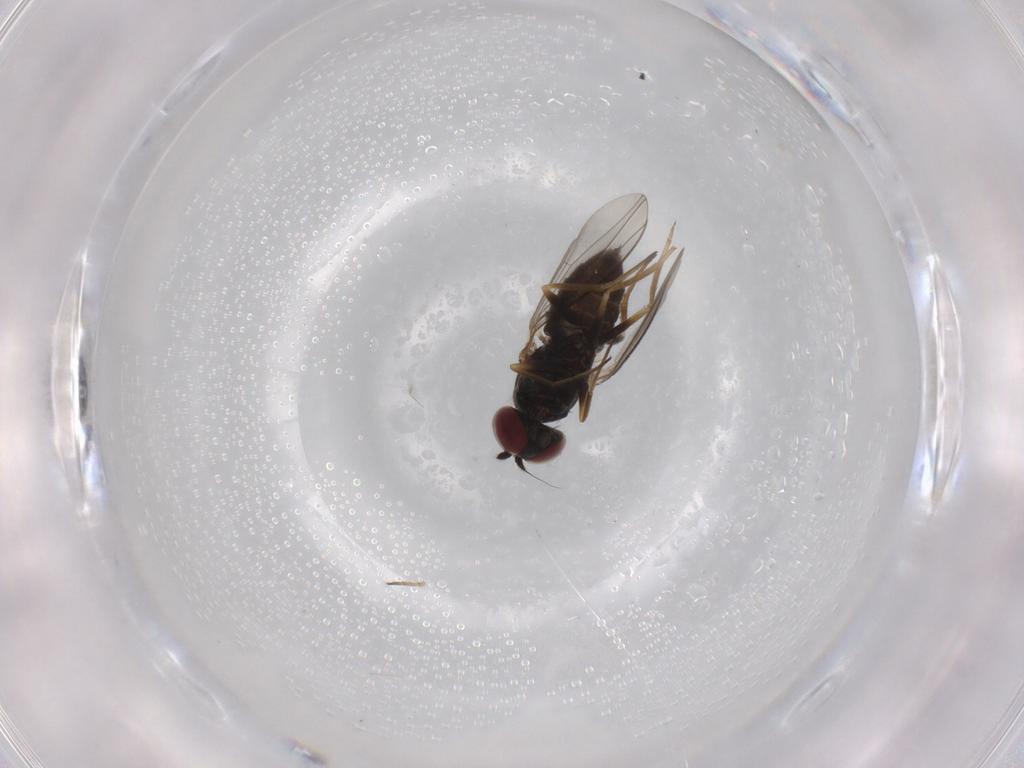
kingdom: Animalia
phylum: Arthropoda
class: Insecta
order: Diptera
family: Dolichopodidae
